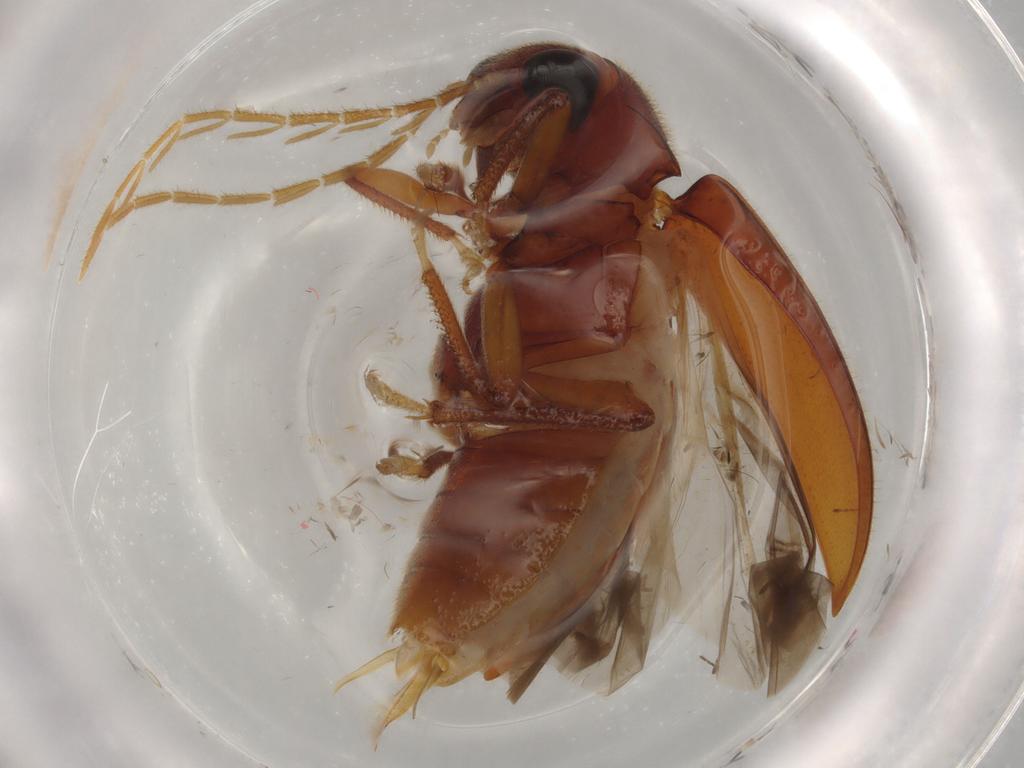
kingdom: Animalia
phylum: Arthropoda
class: Insecta
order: Coleoptera
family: Ptilodactylidae
